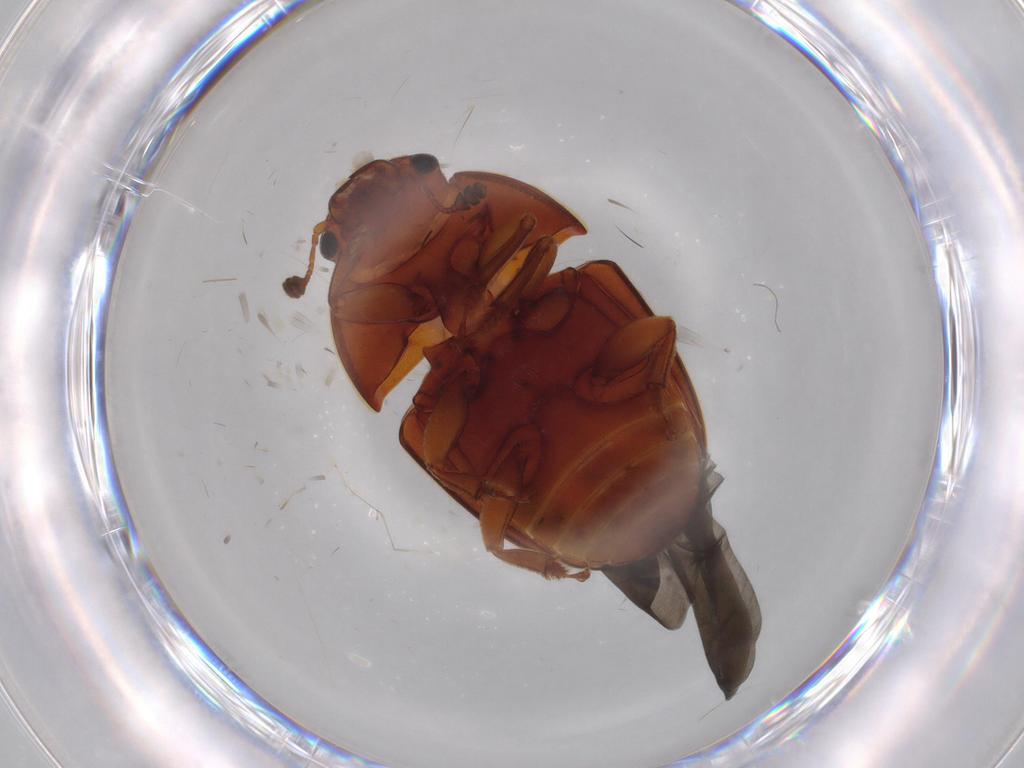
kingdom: Animalia
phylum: Arthropoda
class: Insecta
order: Coleoptera
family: Nitidulidae
